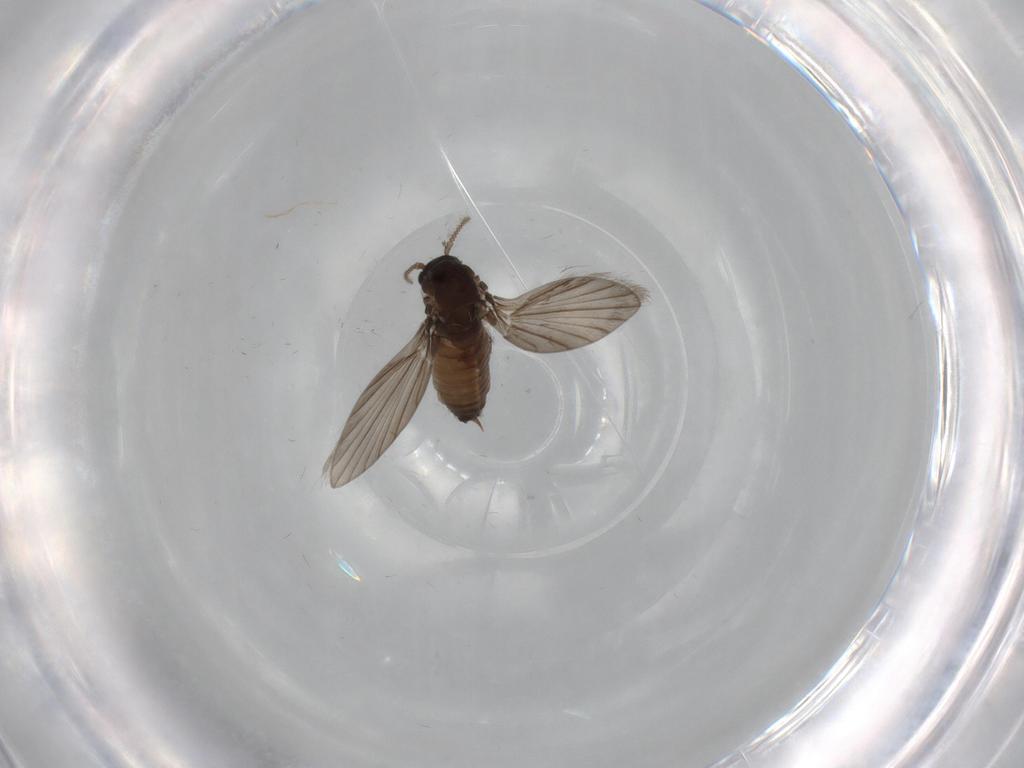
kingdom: Animalia
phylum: Arthropoda
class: Insecta
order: Diptera
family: Psychodidae
